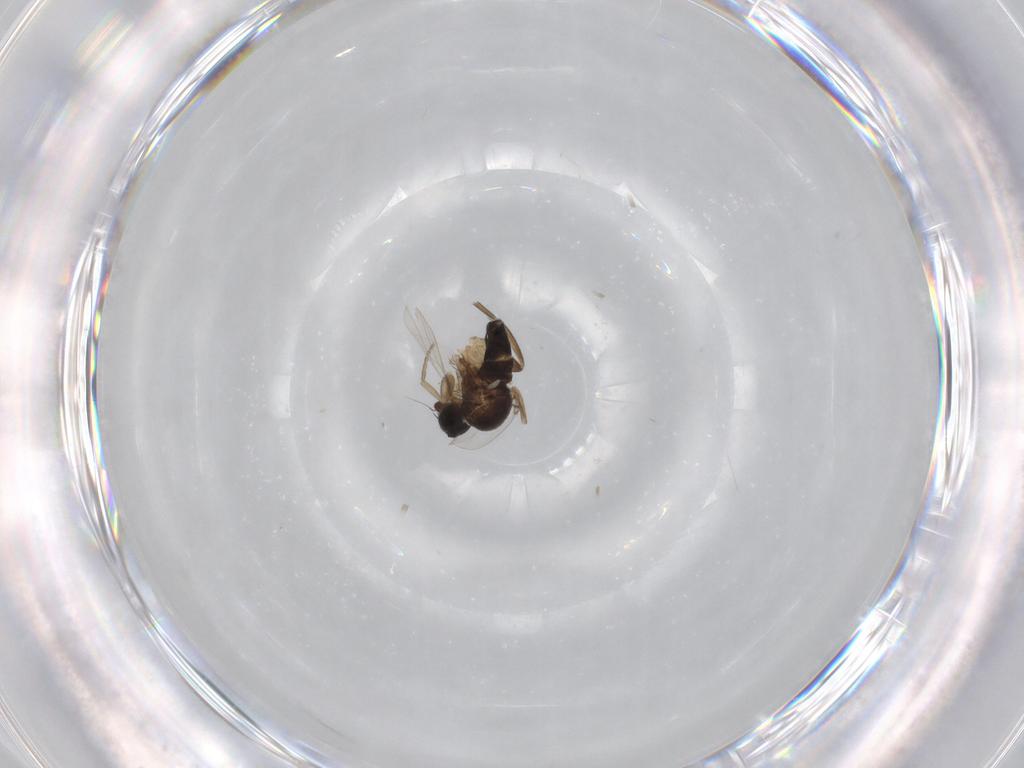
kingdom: Animalia
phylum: Arthropoda
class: Insecta
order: Diptera
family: Phoridae
